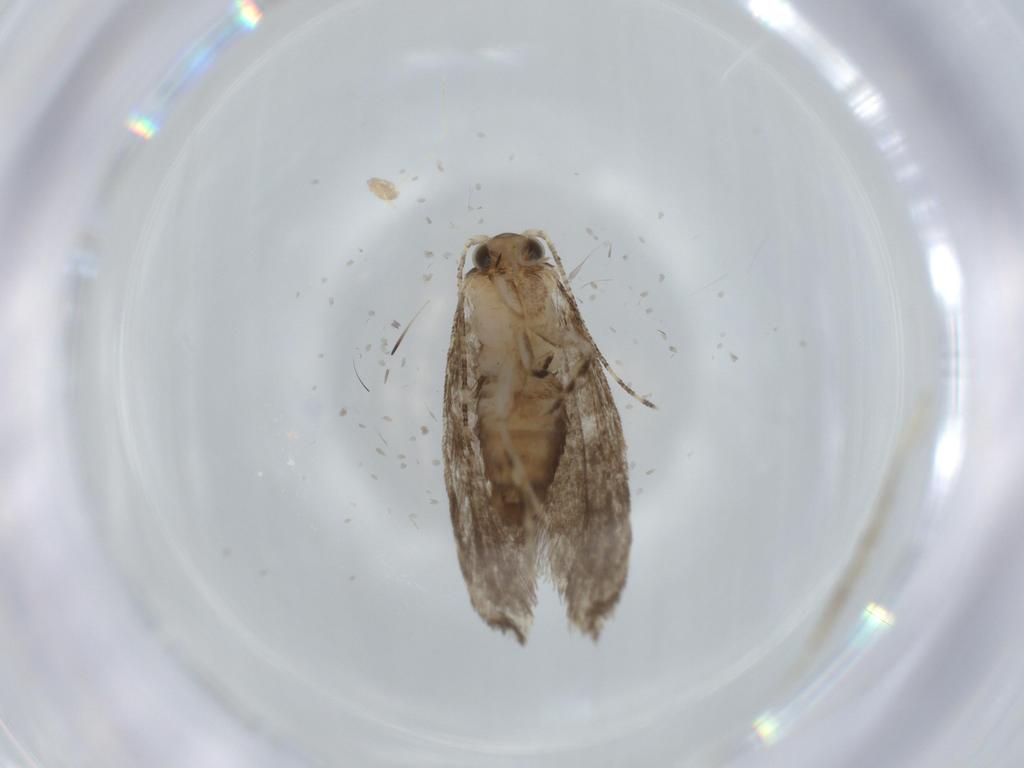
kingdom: Animalia
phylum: Arthropoda
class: Insecta
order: Lepidoptera
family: Tineidae
